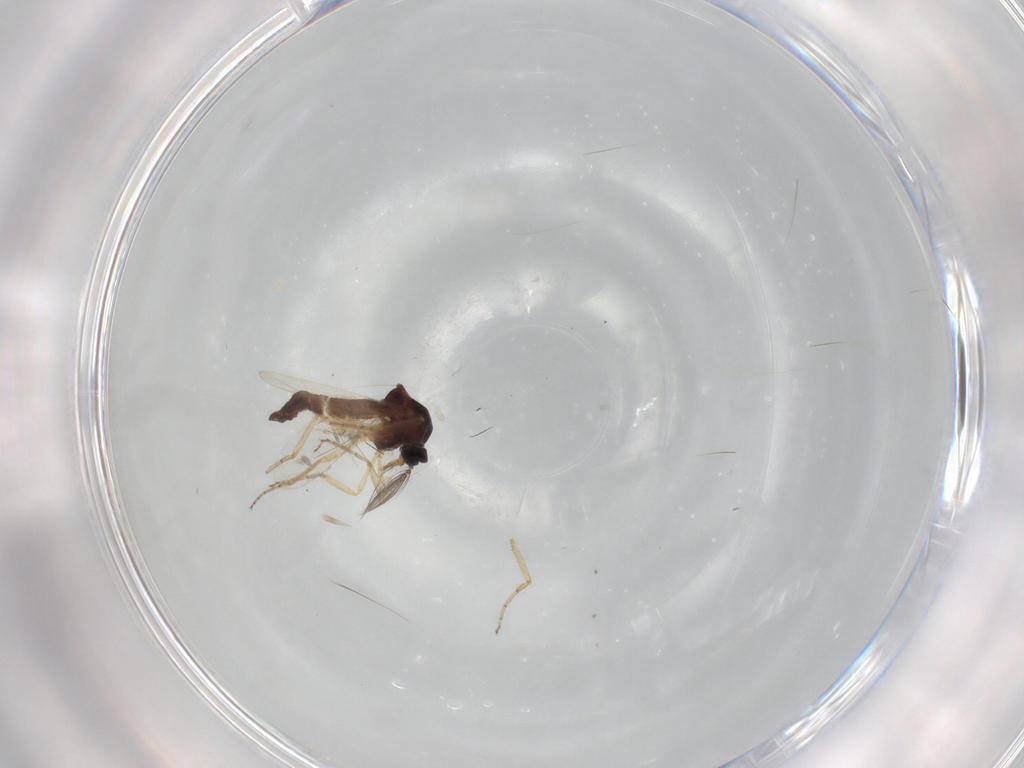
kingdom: Animalia
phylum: Arthropoda
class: Insecta
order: Diptera
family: Ceratopogonidae
